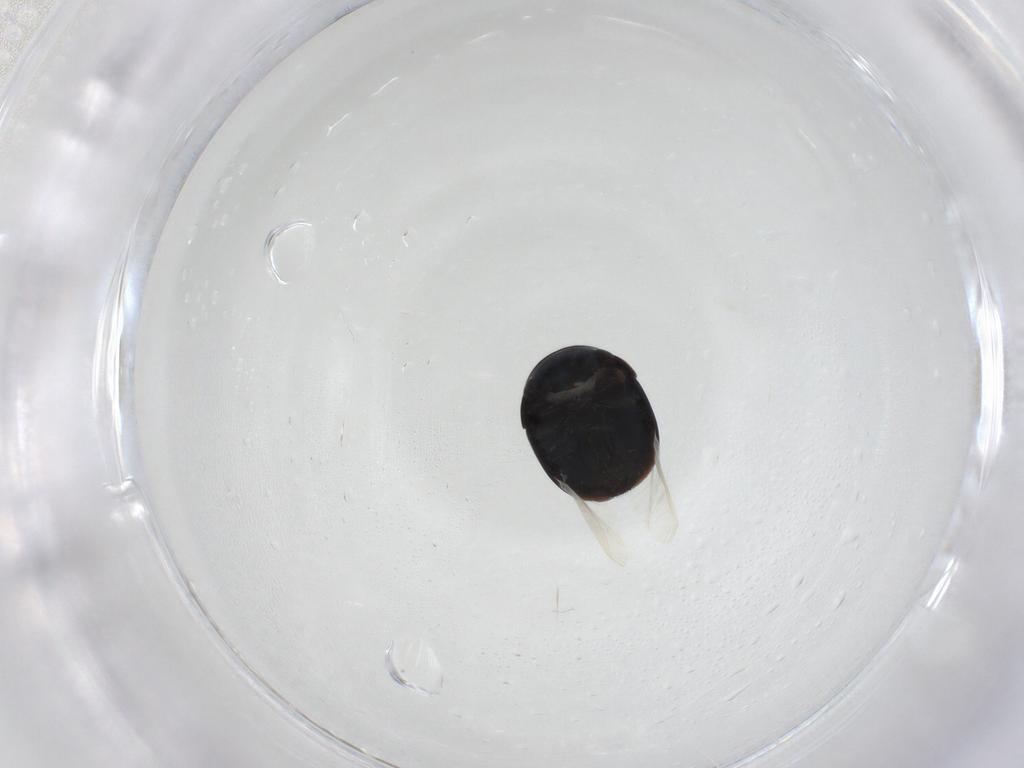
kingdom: Animalia
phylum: Arthropoda
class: Insecta
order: Coleoptera
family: Cybocephalidae
